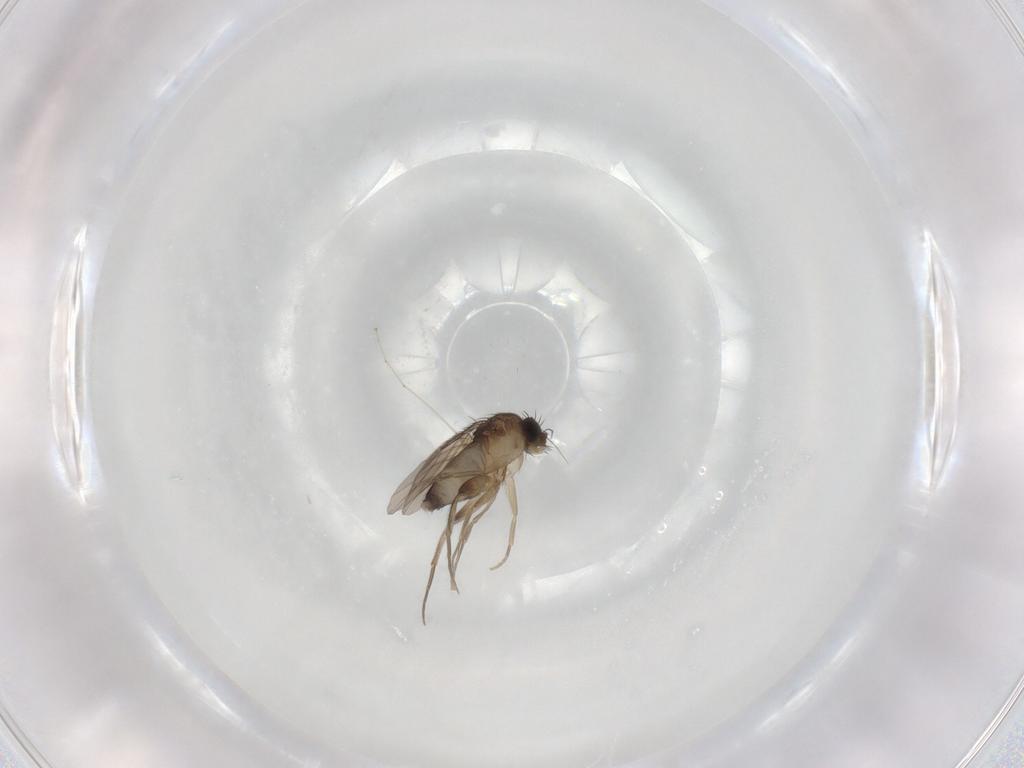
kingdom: Animalia
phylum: Arthropoda
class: Insecta
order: Diptera
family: Phoridae
